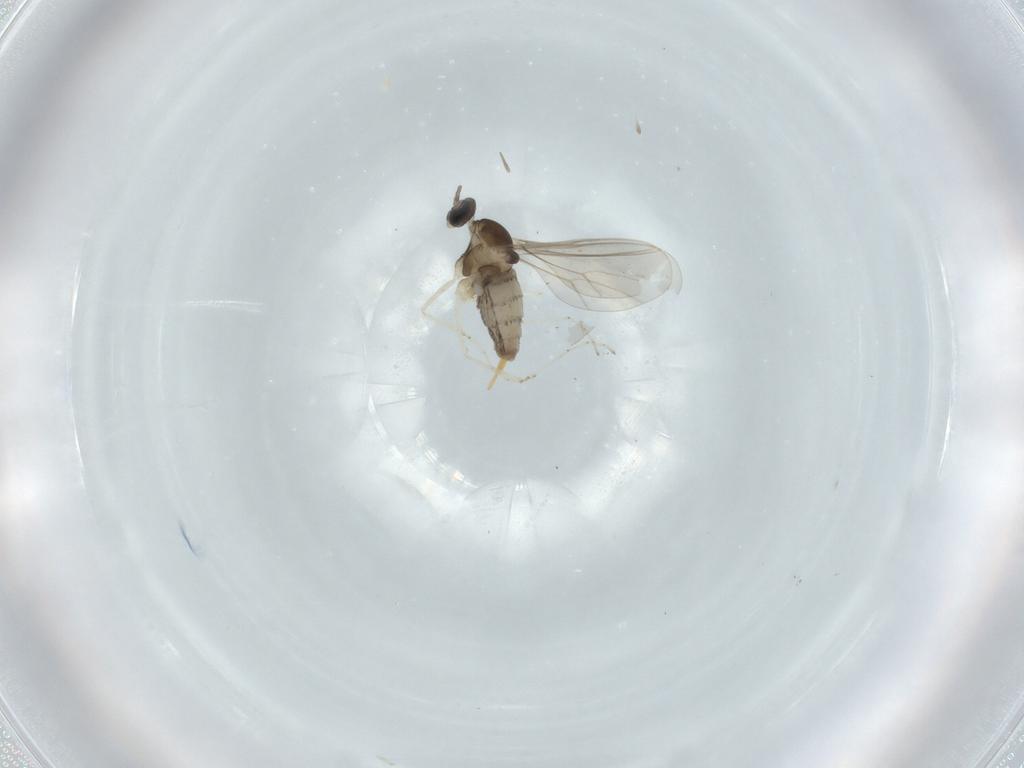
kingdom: Animalia
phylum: Arthropoda
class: Insecta
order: Diptera
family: Cecidomyiidae
